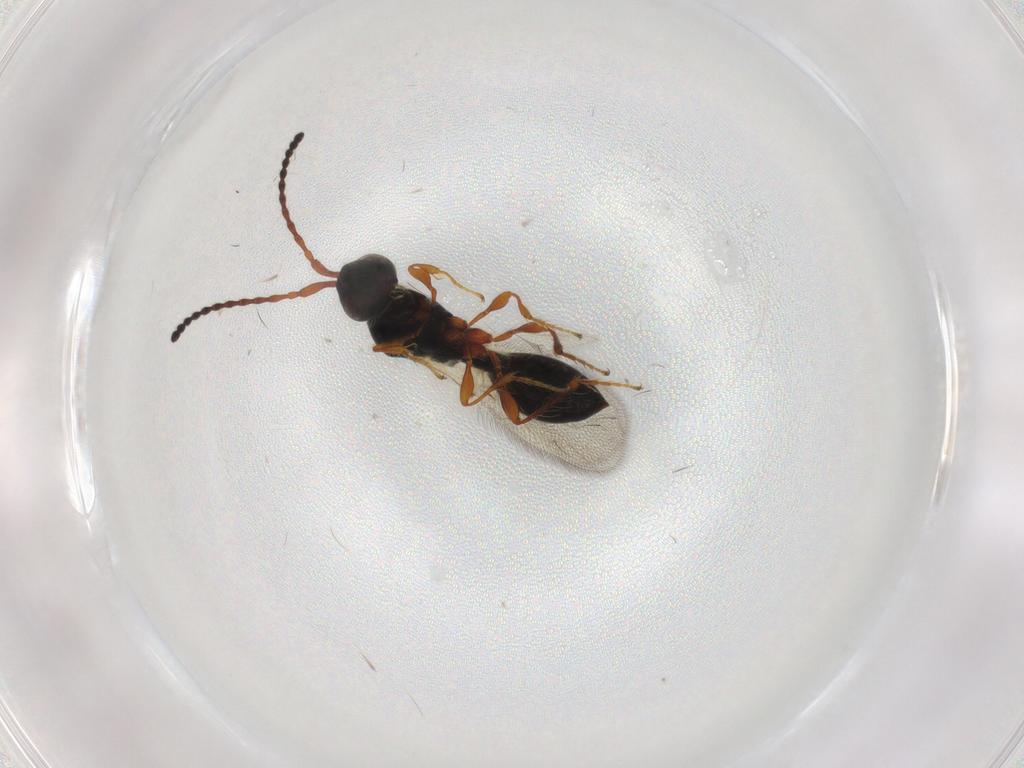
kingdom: Animalia
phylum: Arthropoda
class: Insecta
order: Hymenoptera
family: Diapriidae
